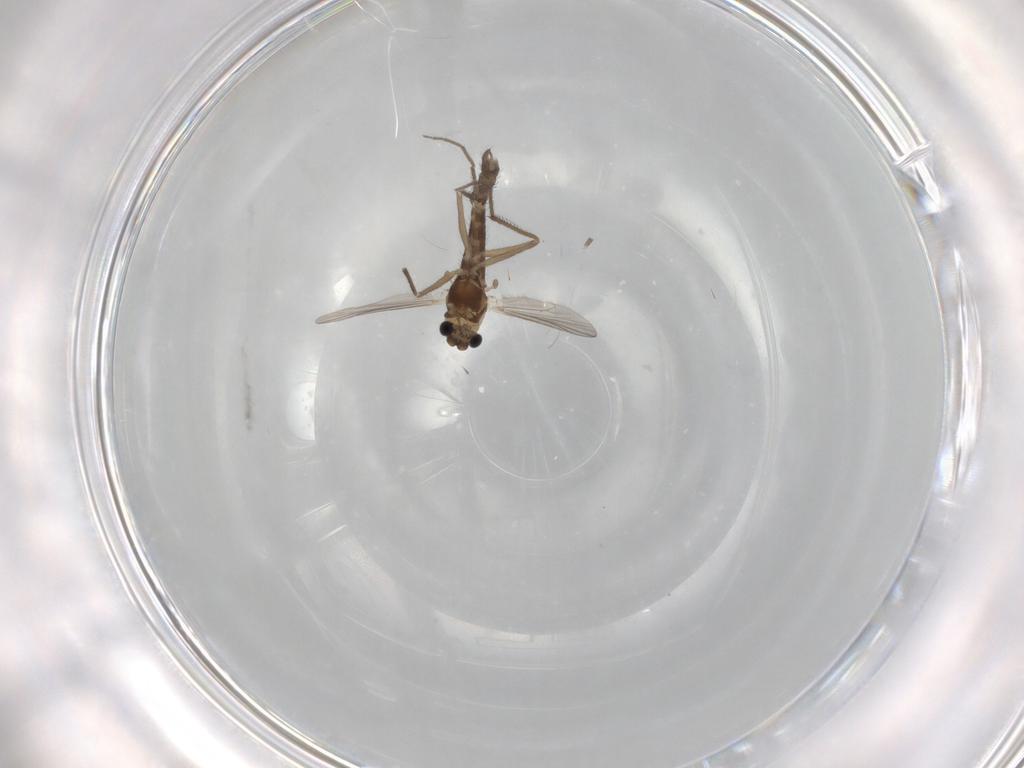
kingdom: Animalia
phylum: Arthropoda
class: Insecta
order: Diptera
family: Chironomidae
